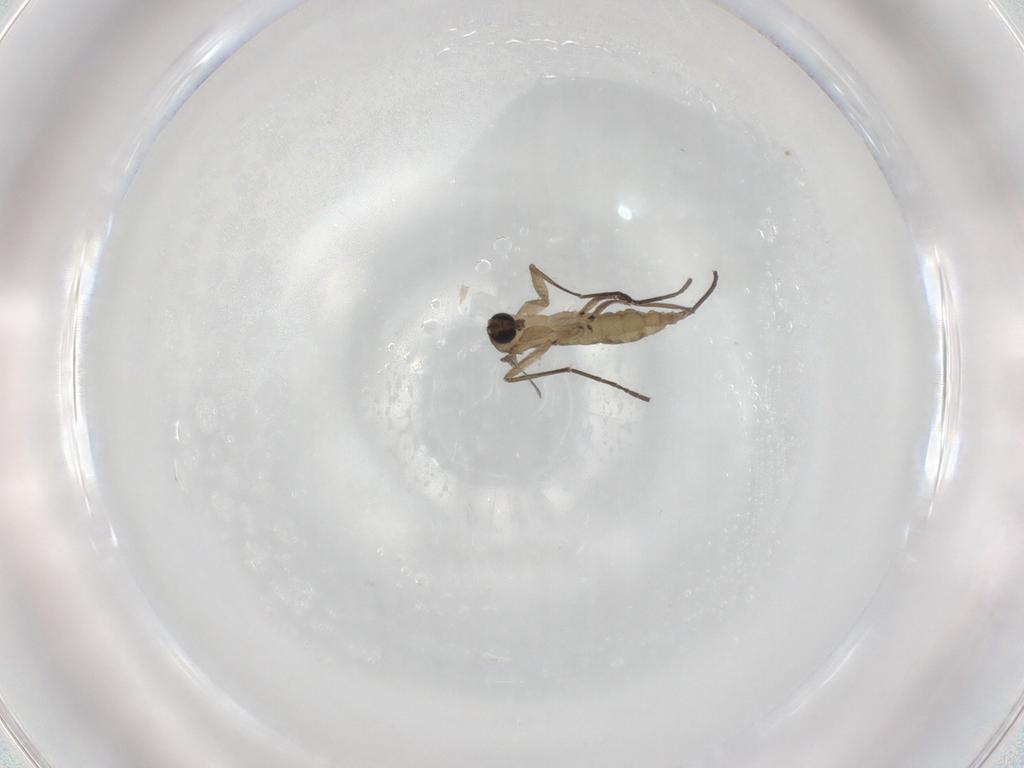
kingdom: Animalia
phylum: Arthropoda
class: Insecta
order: Diptera
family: Sciaridae
